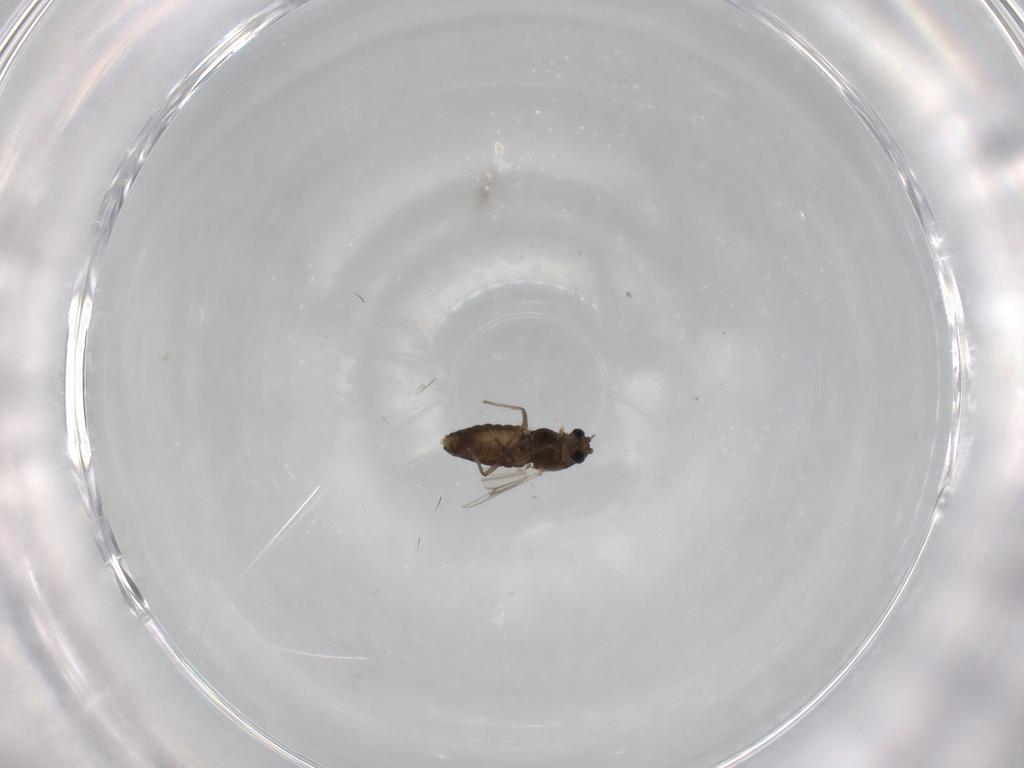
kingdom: Animalia
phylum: Arthropoda
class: Insecta
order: Diptera
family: Chironomidae
